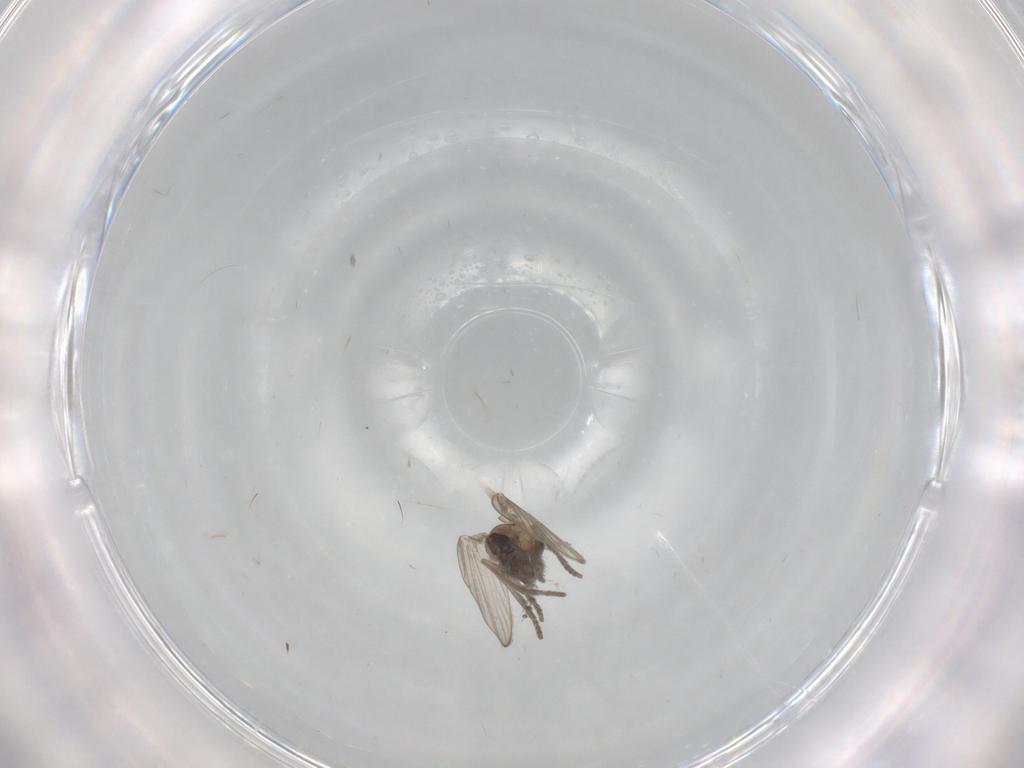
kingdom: Animalia
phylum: Arthropoda
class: Insecta
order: Diptera
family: Psychodidae
